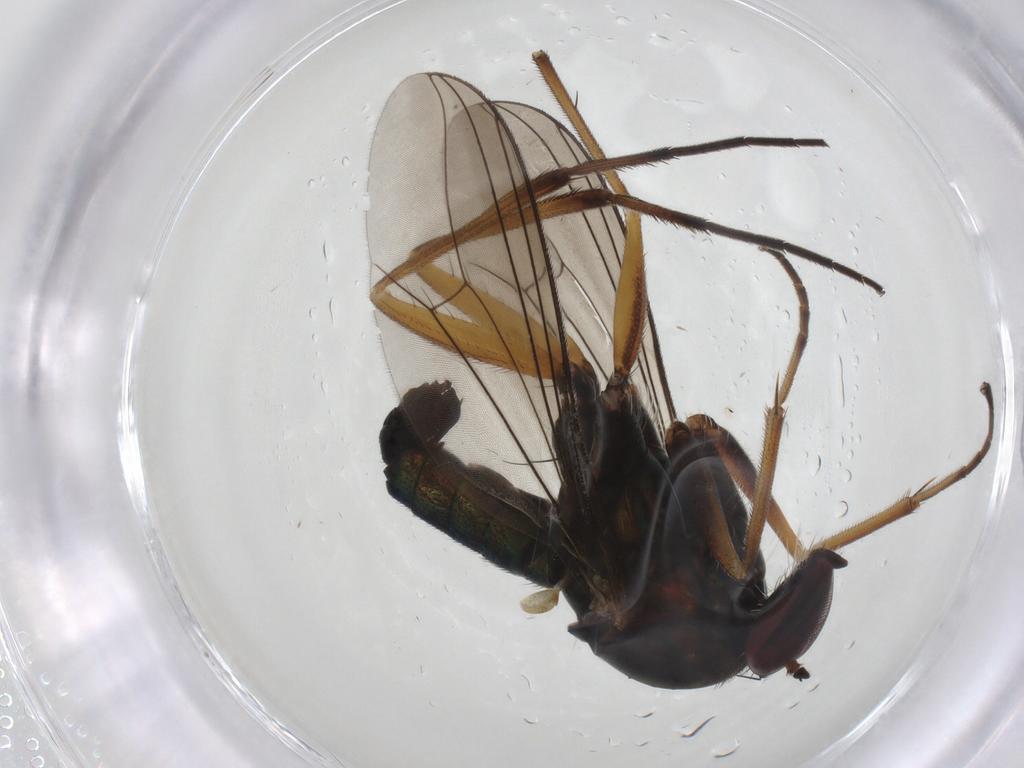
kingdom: Animalia
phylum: Arthropoda
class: Insecta
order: Diptera
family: Keroplatidae
